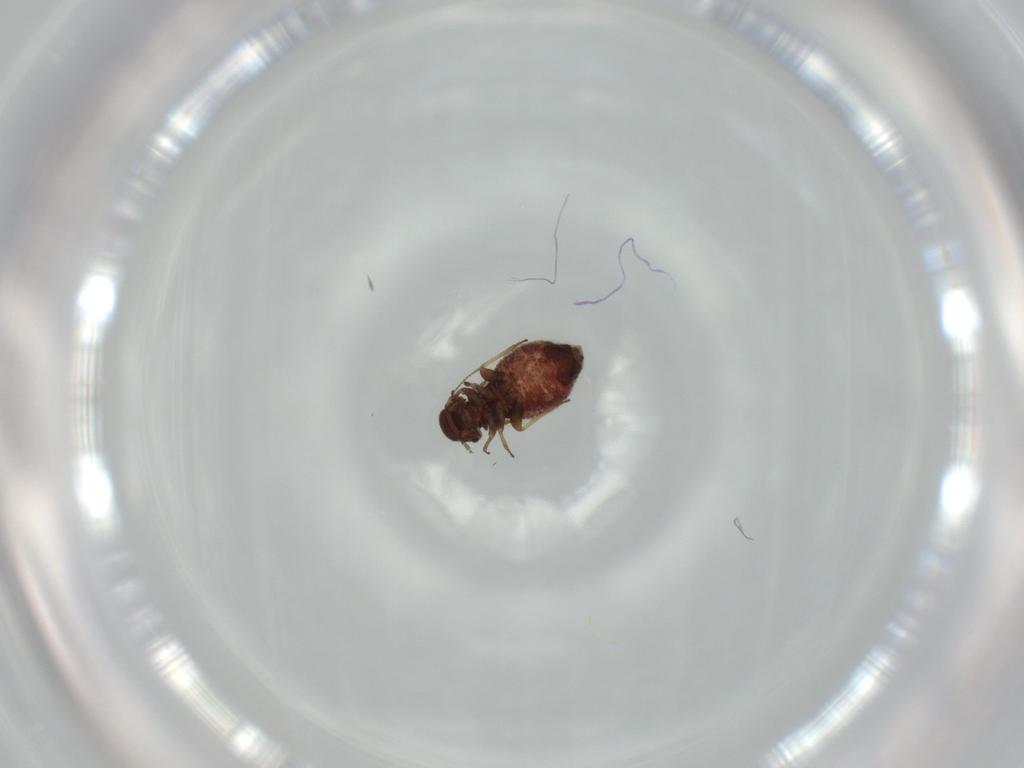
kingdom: Animalia
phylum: Arthropoda
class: Insecta
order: Psocodea
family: Archipsocidae
